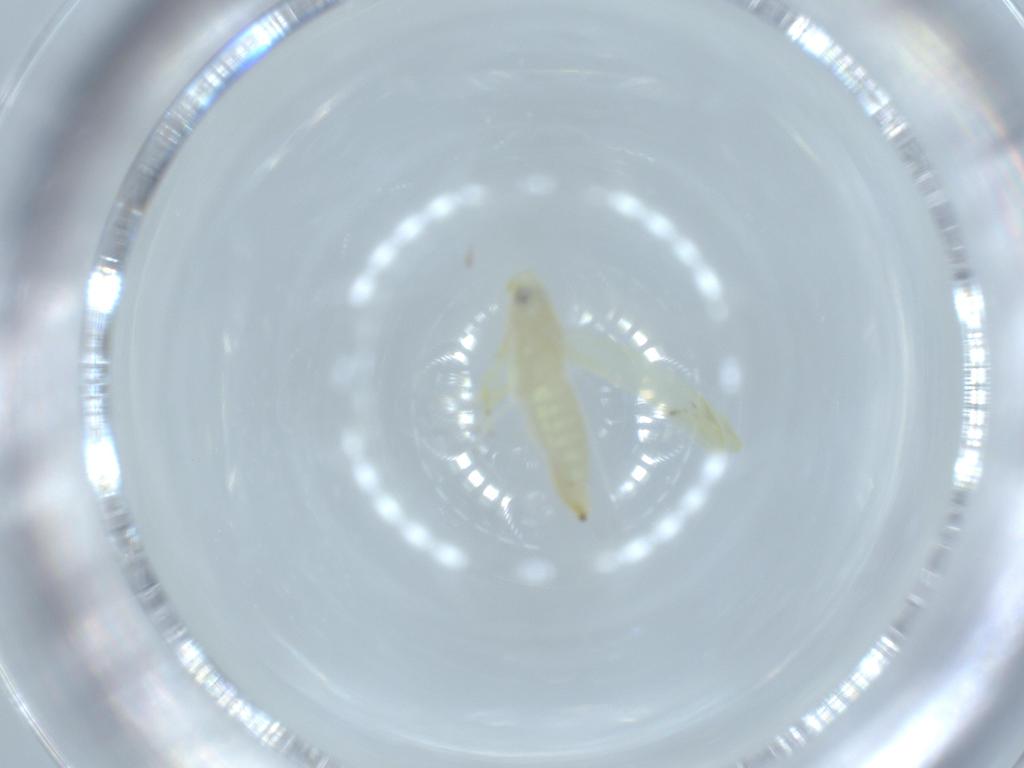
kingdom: Animalia
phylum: Arthropoda
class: Insecta
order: Hemiptera
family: Cicadellidae
